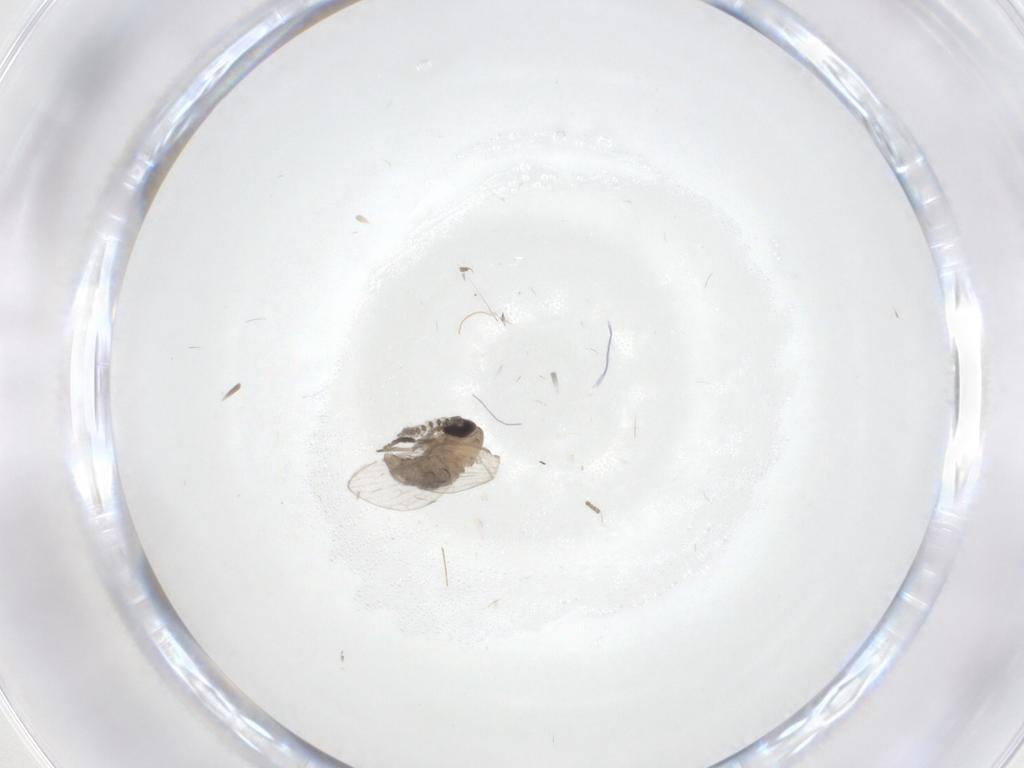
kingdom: Animalia
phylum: Arthropoda
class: Insecta
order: Diptera
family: Psychodidae
